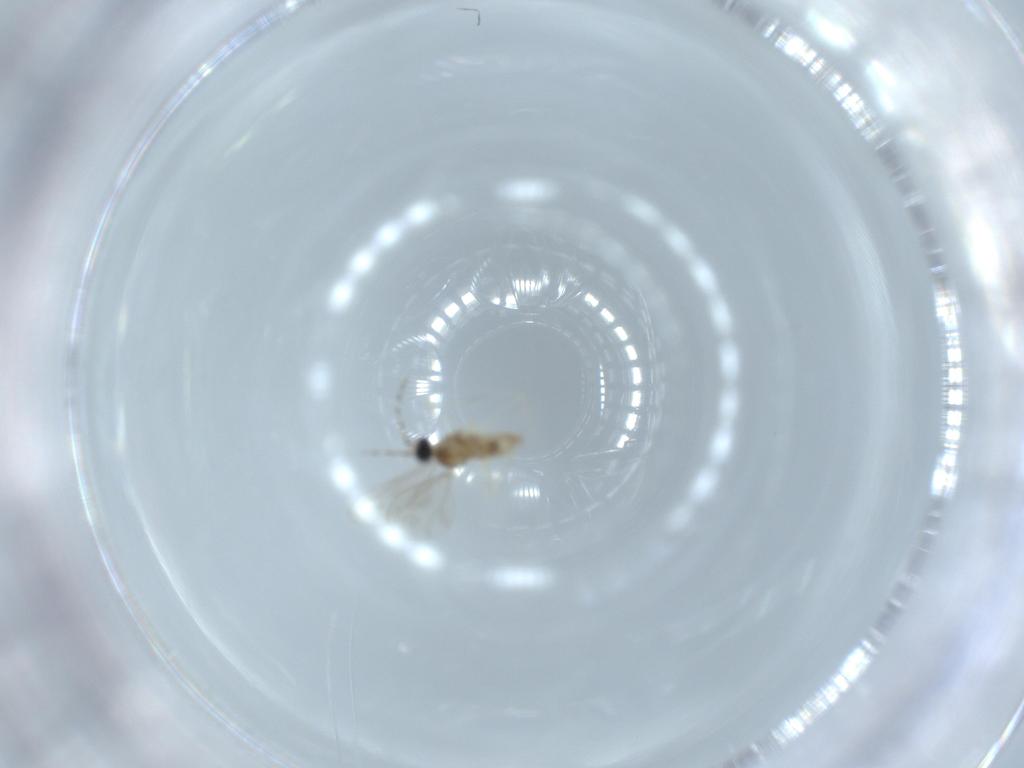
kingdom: Animalia
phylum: Arthropoda
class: Insecta
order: Diptera
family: Cecidomyiidae
